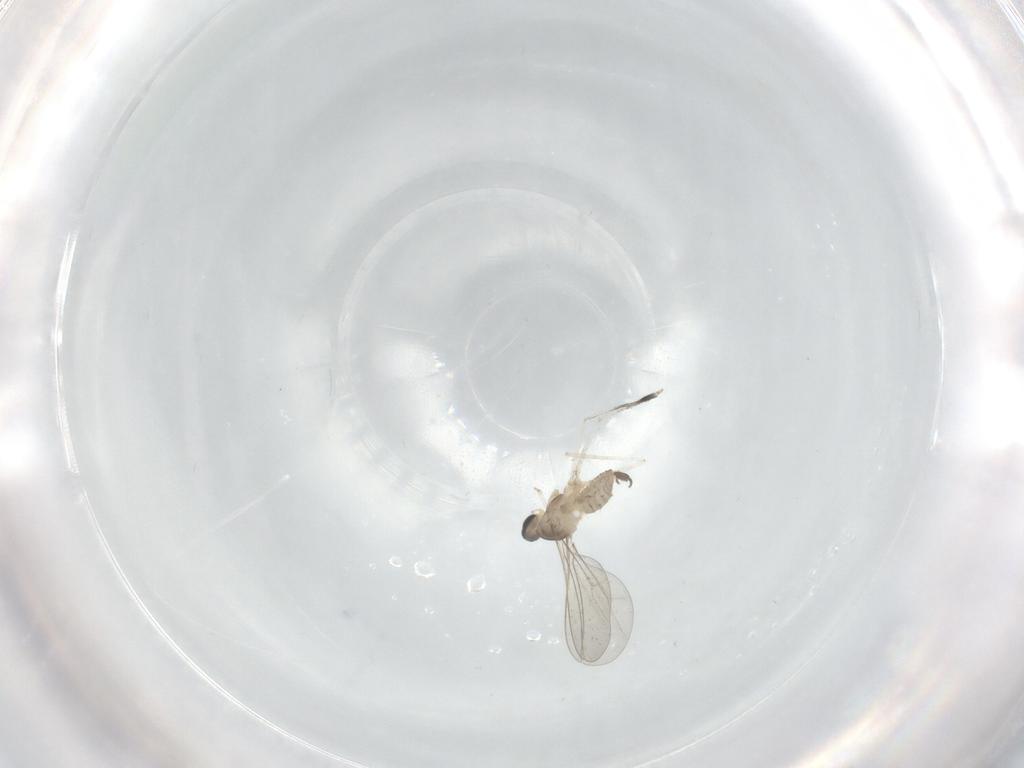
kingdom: Animalia
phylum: Arthropoda
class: Insecta
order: Diptera
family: Cecidomyiidae
